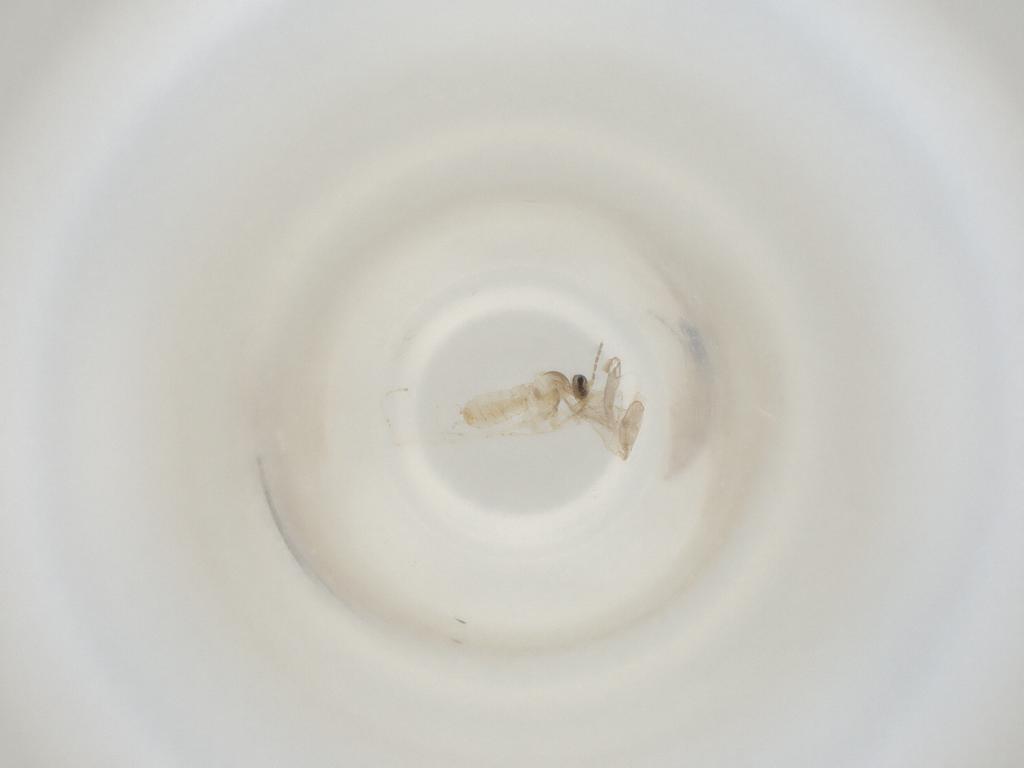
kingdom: Animalia
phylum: Arthropoda
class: Insecta
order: Diptera
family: Cecidomyiidae
